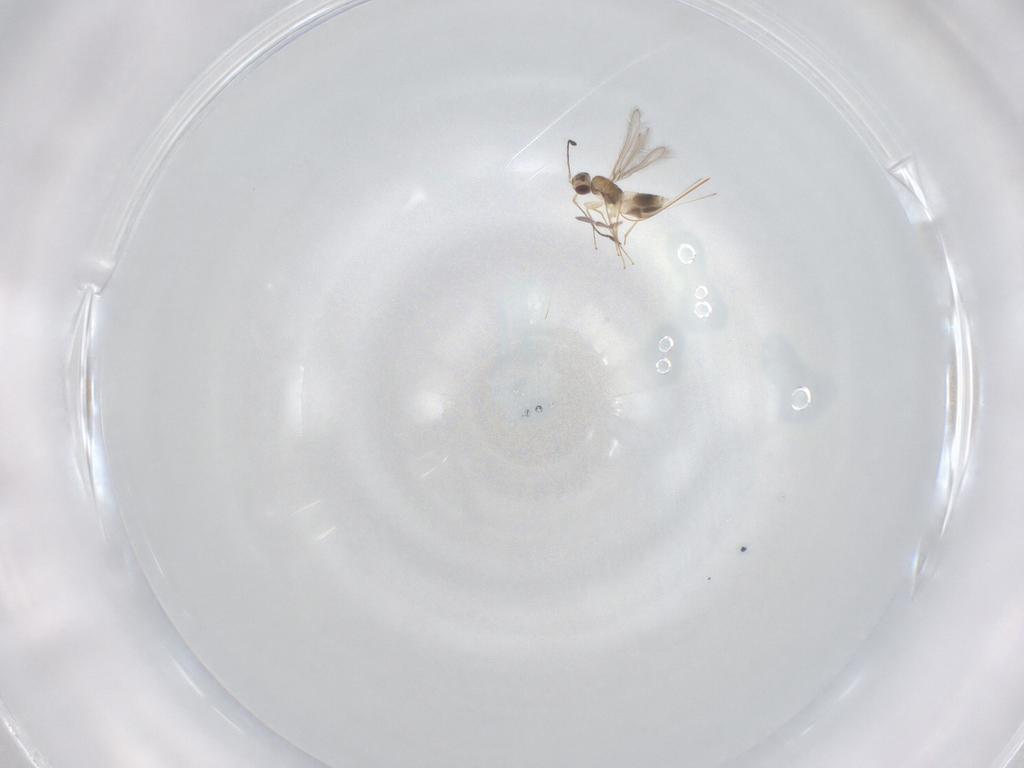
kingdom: Animalia
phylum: Arthropoda
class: Insecta
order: Hymenoptera
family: Mymaridae
